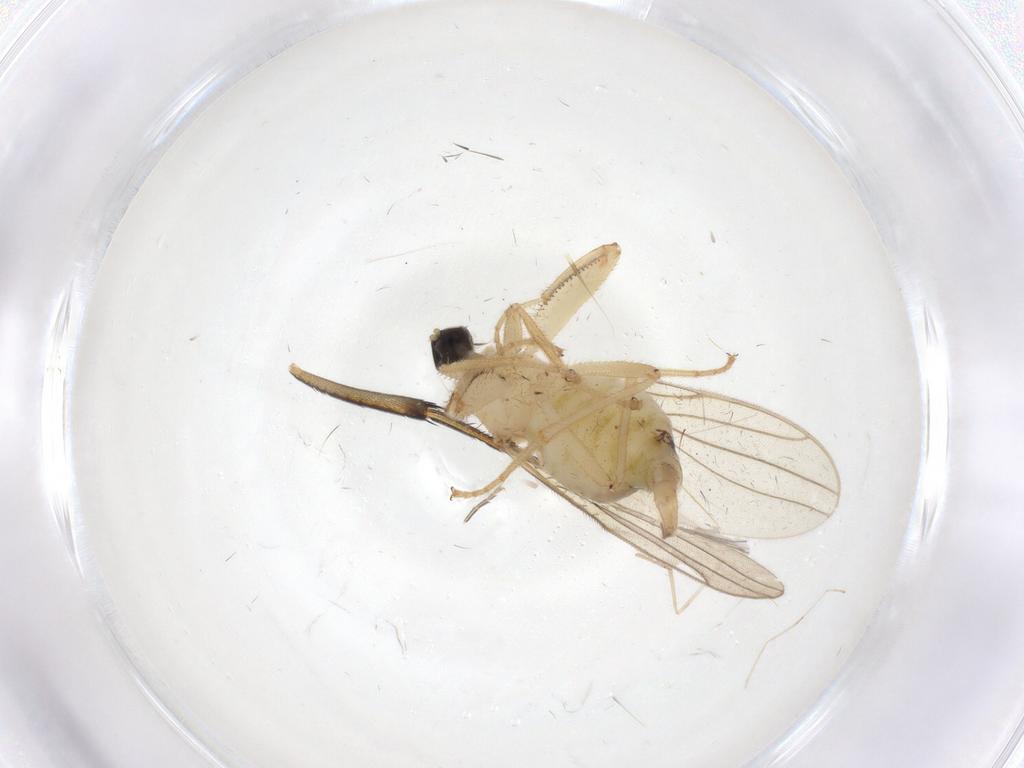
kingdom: Animalia
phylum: Arthropoda
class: Insecta
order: Diptera
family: Hybotidae
